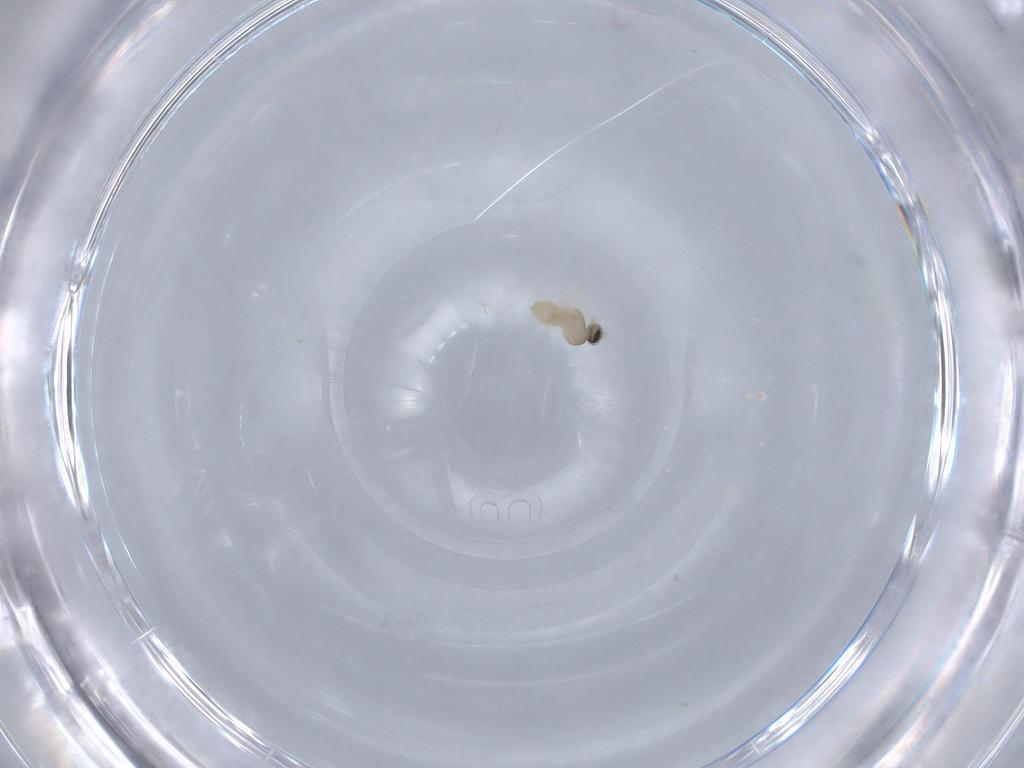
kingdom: Animalia
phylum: Arthropoda
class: Insecta
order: Diptera
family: Cecidomyiidae
